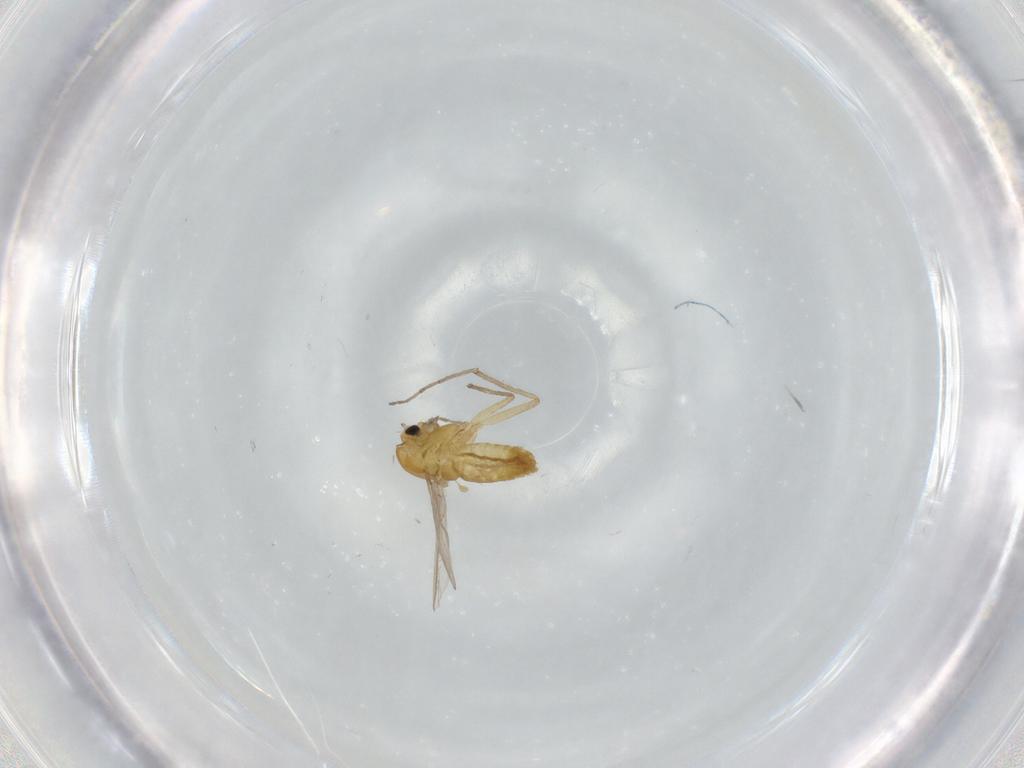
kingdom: Animalia
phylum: Arthropoda
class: Insecta
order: Diptera
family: Chironomidae
